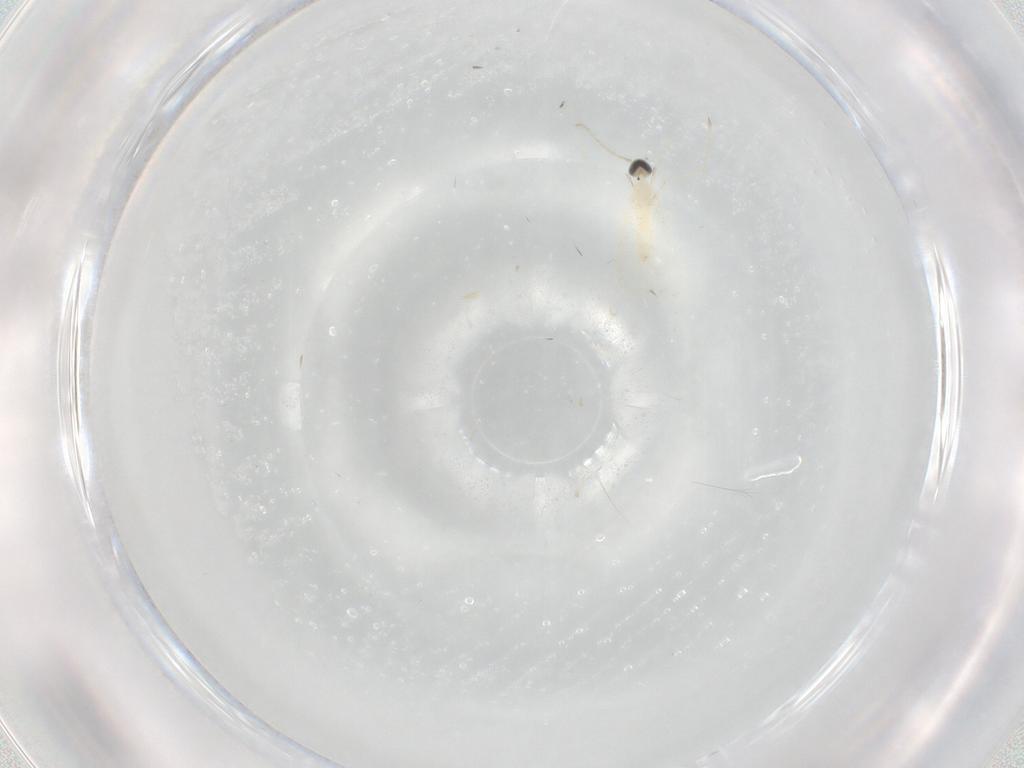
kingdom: Animalia
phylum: Arthropoda
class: Insecta
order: Diptera
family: Cecidomyiidae
